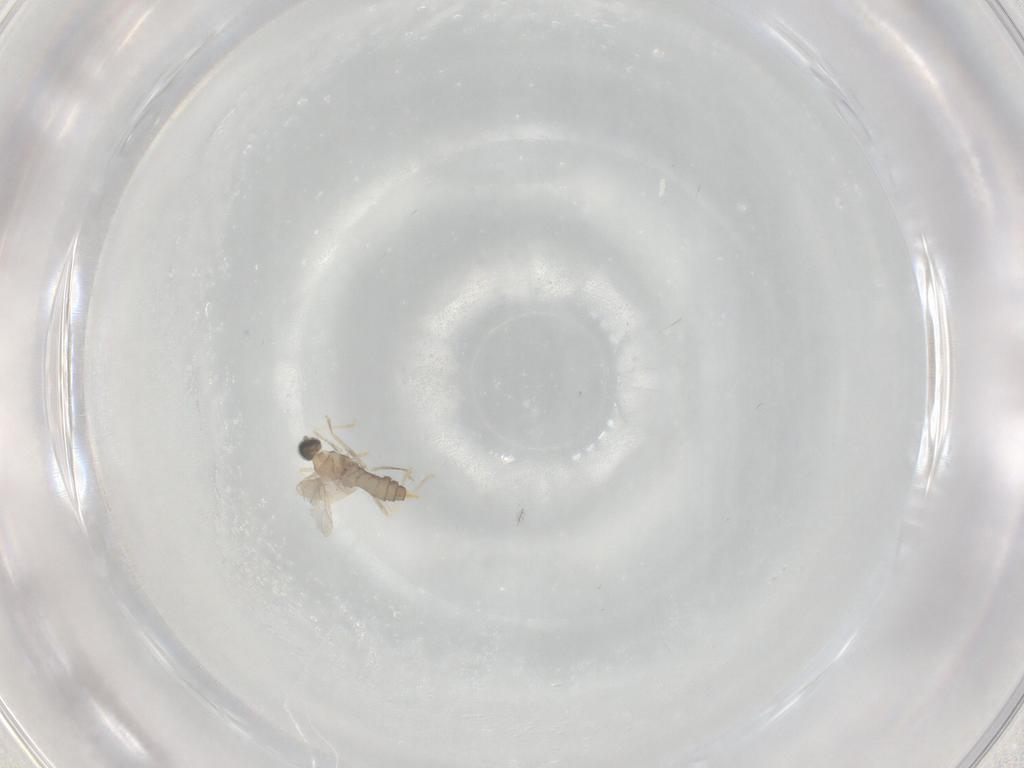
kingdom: Animalia
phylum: Arthropoda
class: Insecta
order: Diptera
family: Cecidomyiidae
